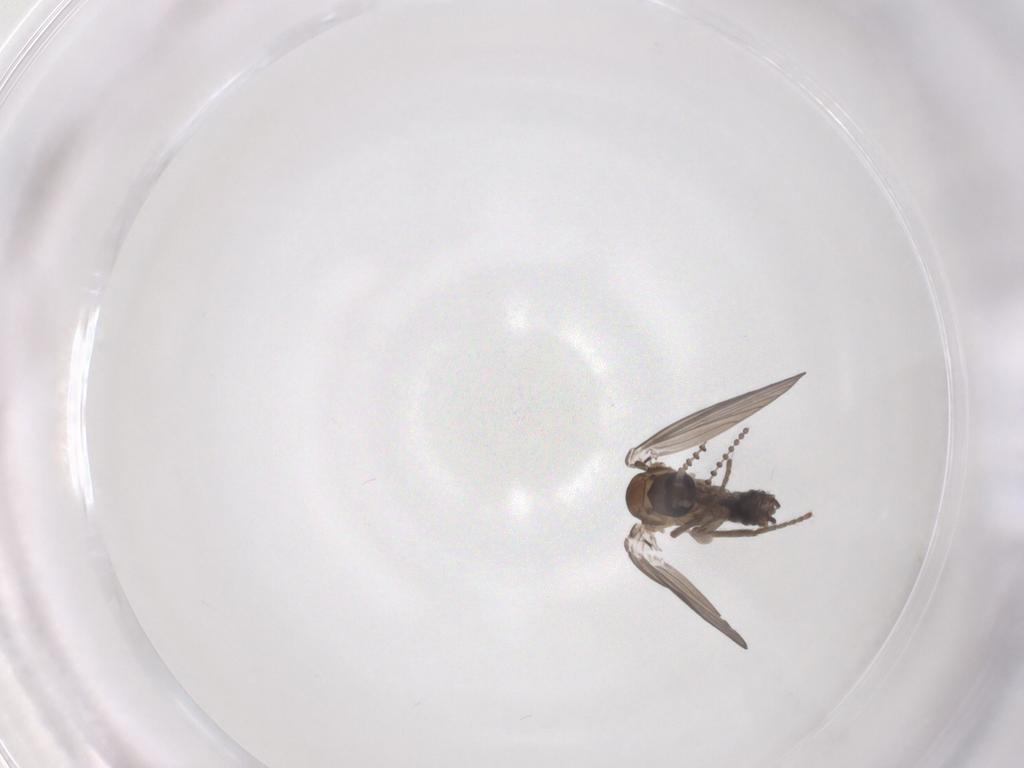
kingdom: Animalia
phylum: Arthropoda
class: Insecta
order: Diptera
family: Psychodidae
